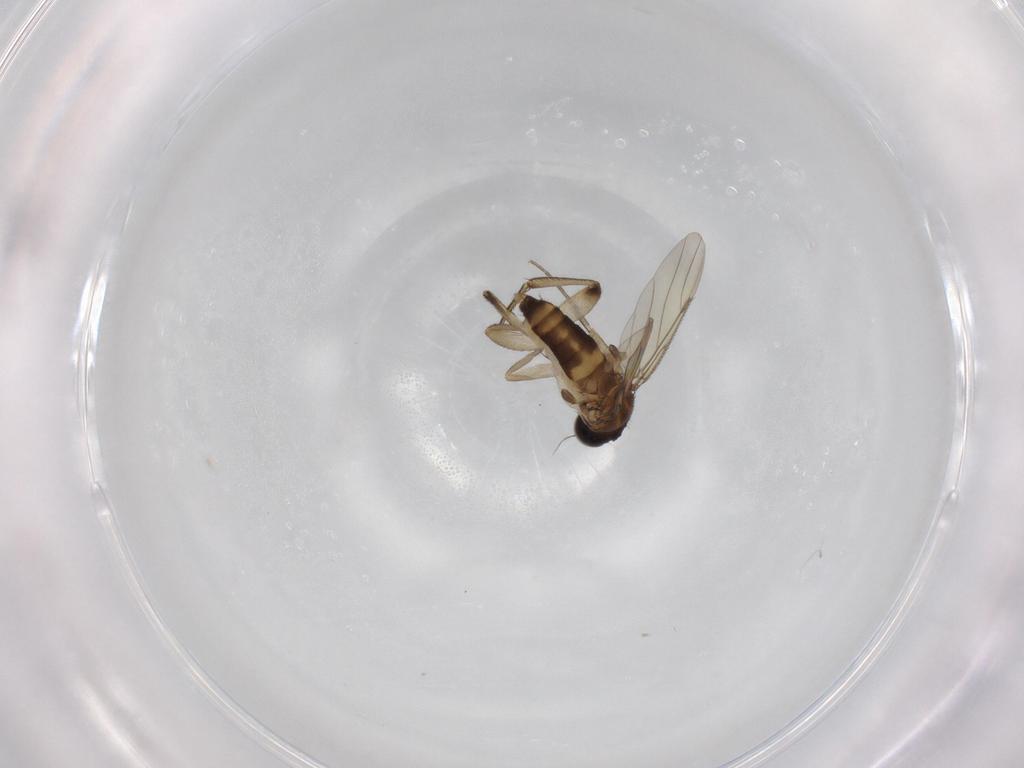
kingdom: Animalia
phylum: Arthropoda
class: Insecta
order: Diptera
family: Phoridae
